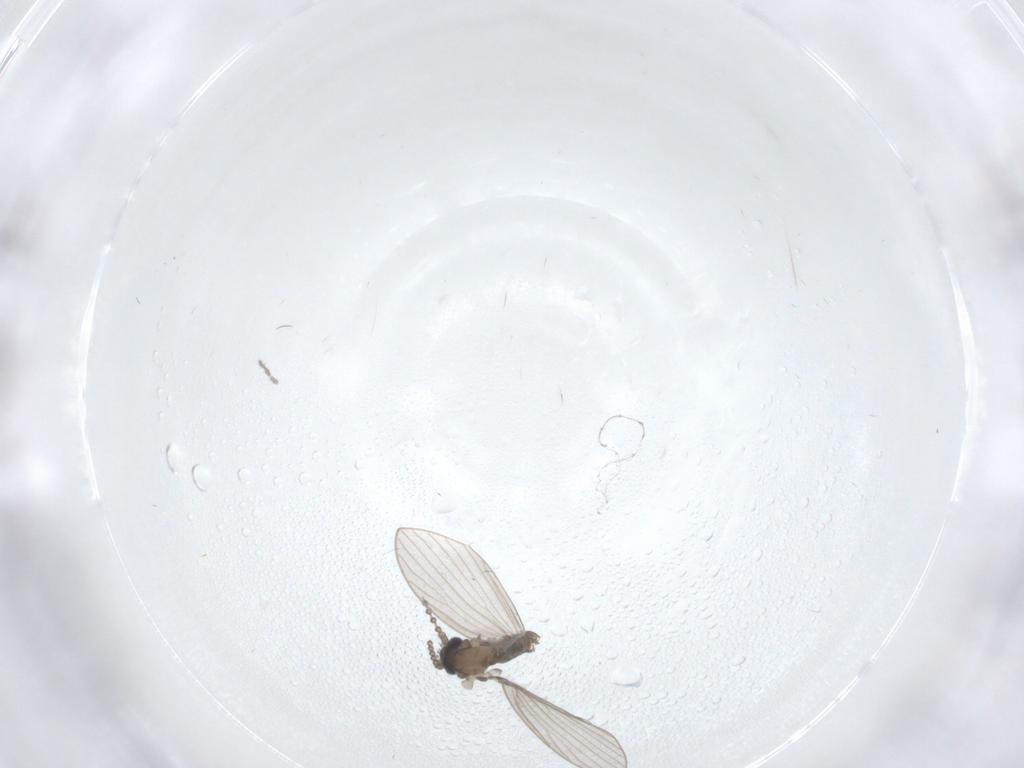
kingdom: Animalia
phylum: Arthropoda
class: Insecta
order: Diptera
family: Psychodidae
